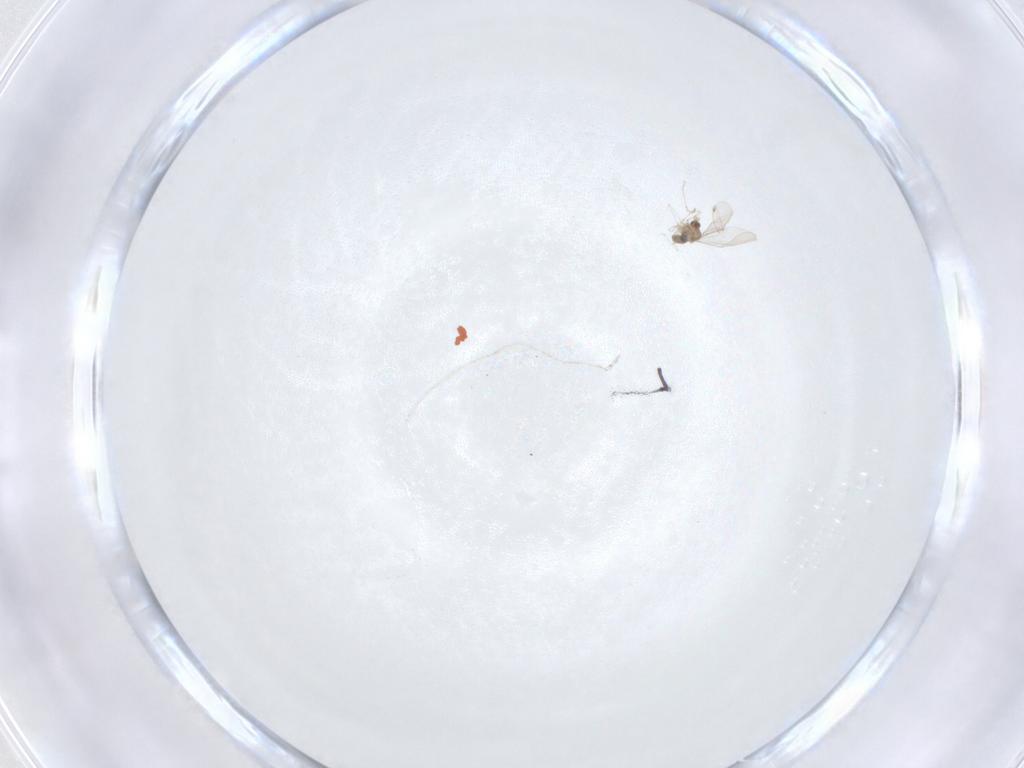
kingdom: Animalia
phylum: Arthropoda
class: Insecta
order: Diptera
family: Cecidomyiidae
